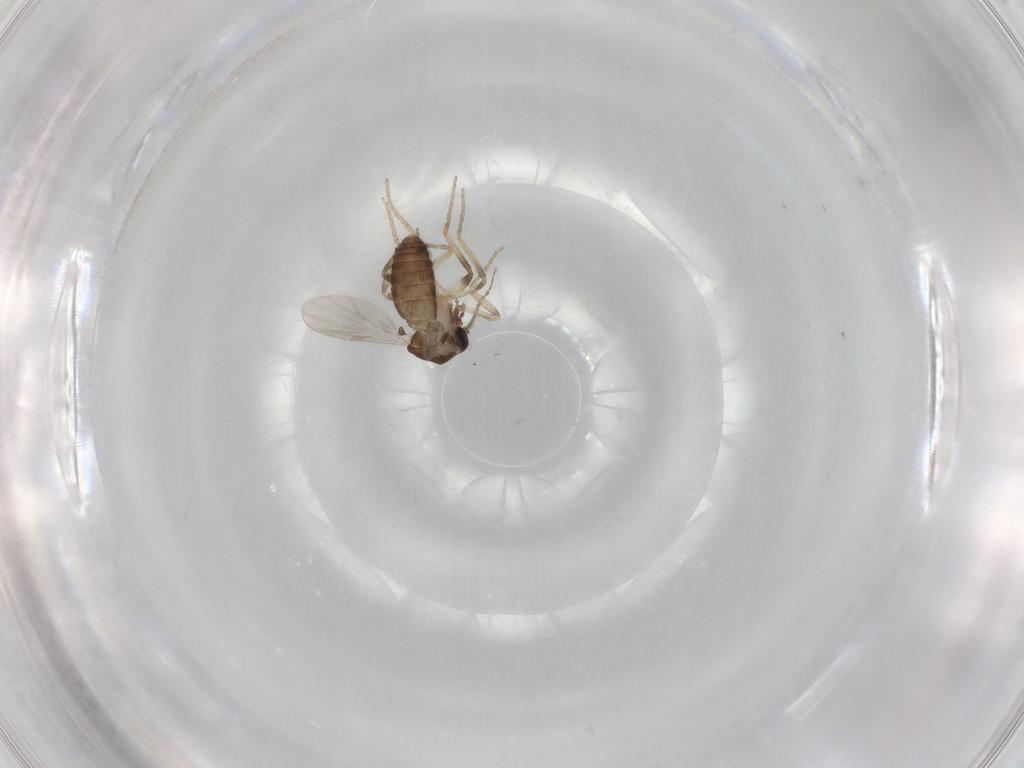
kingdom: Animalia
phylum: Arthropoda
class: Insecta
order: Diptera
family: Ceratopogonidae
